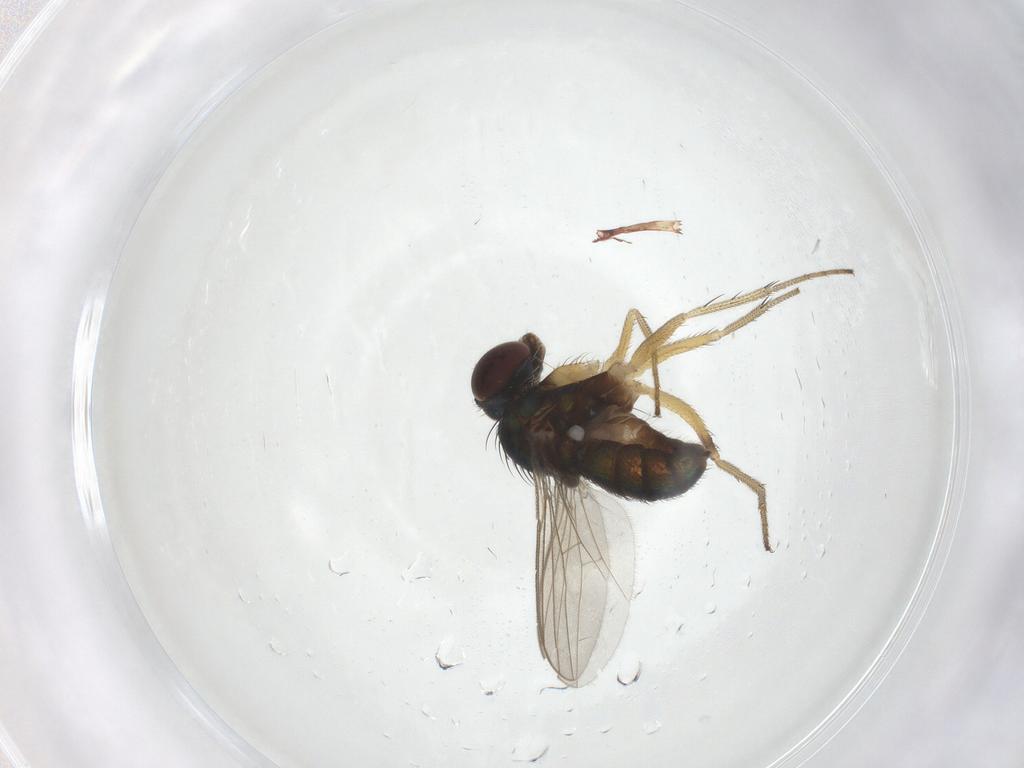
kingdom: Animalia
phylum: Arthropoda
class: Insecta
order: Diptera
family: Dolichopodidae
